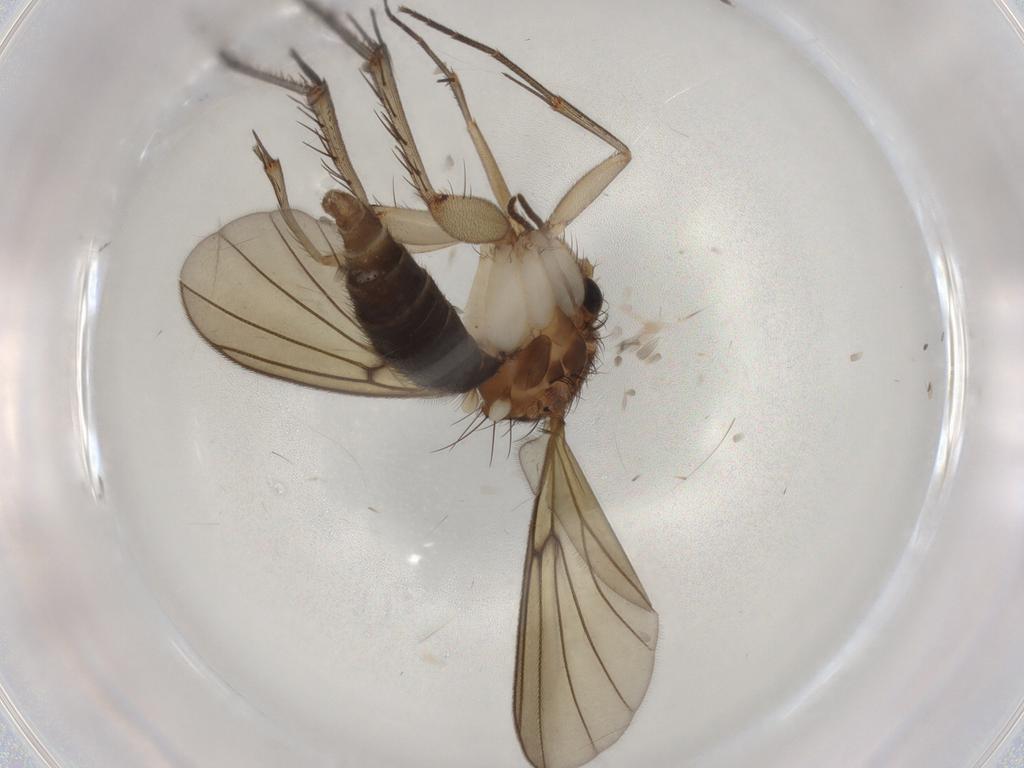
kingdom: Animalia
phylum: Arthropoda
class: Insecta
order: Diptera
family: Mycetophilidae
